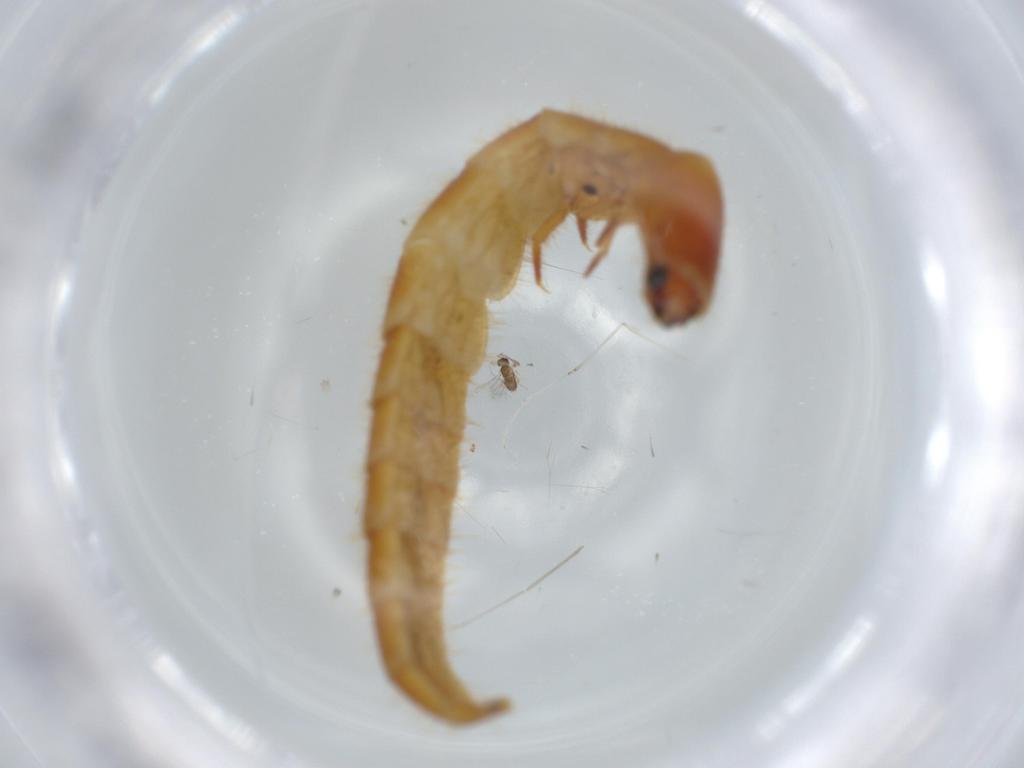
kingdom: Animalia
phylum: Arthropoda
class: Insecta
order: Coleoptera
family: Phengodidae
